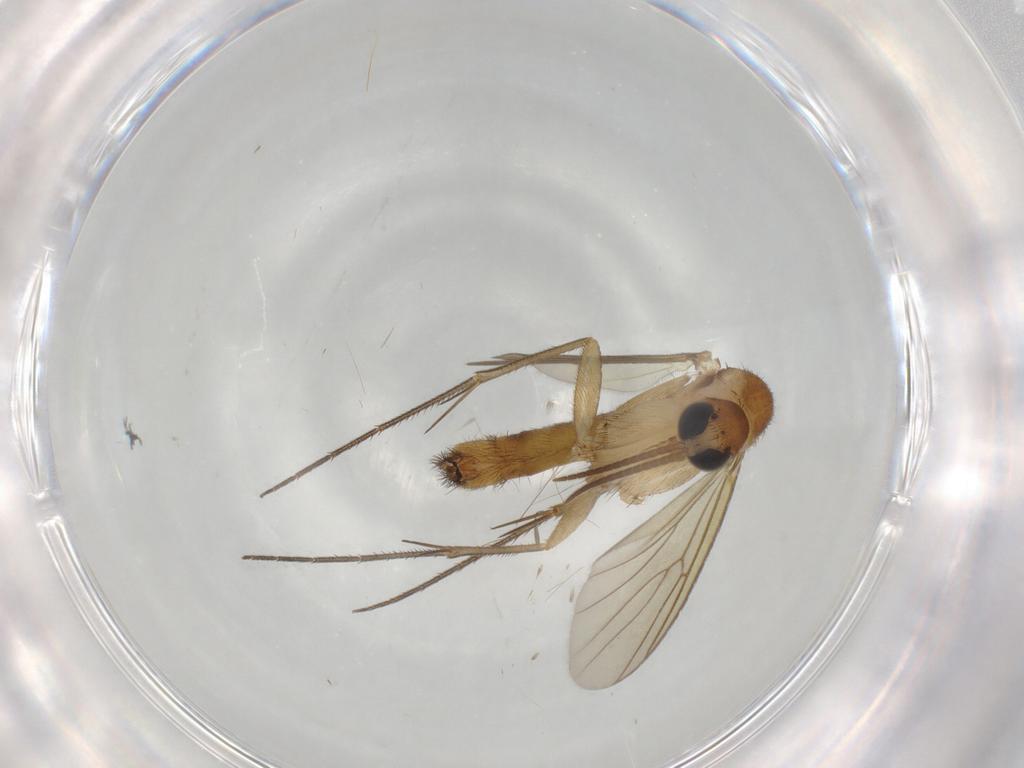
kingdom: Animalia
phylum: Arthropoda
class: Insecta
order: Diptera
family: Mycetophilidae
